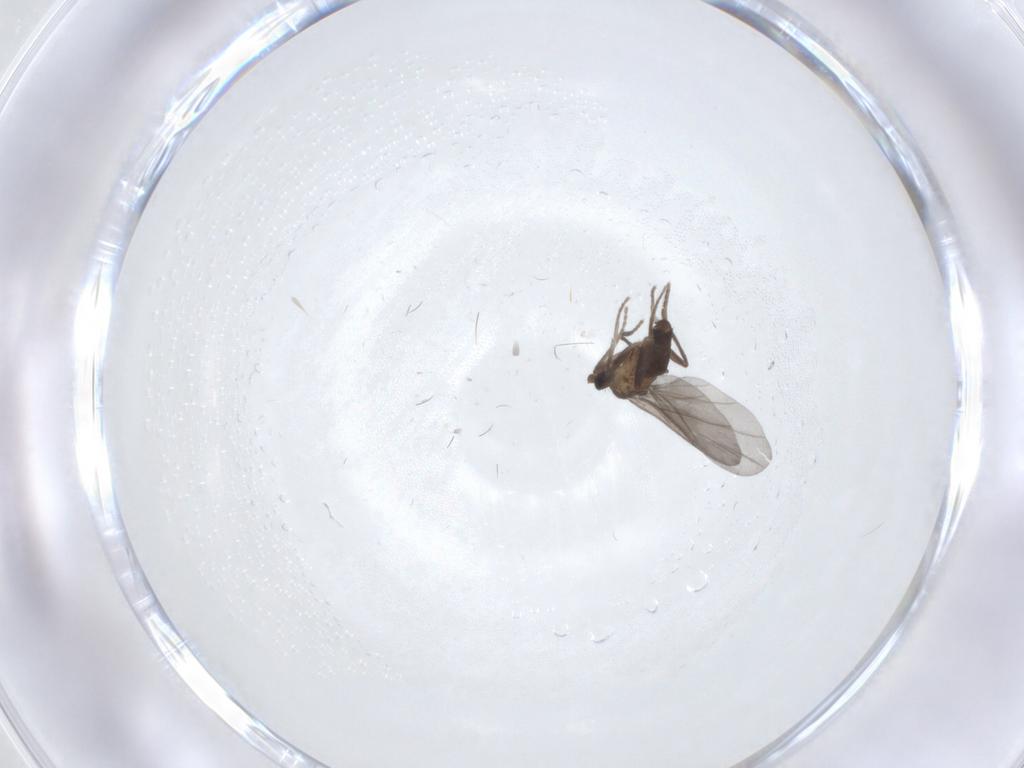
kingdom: Animalia
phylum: Arthropoda
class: Insecta
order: Diptera
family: Phoridae
